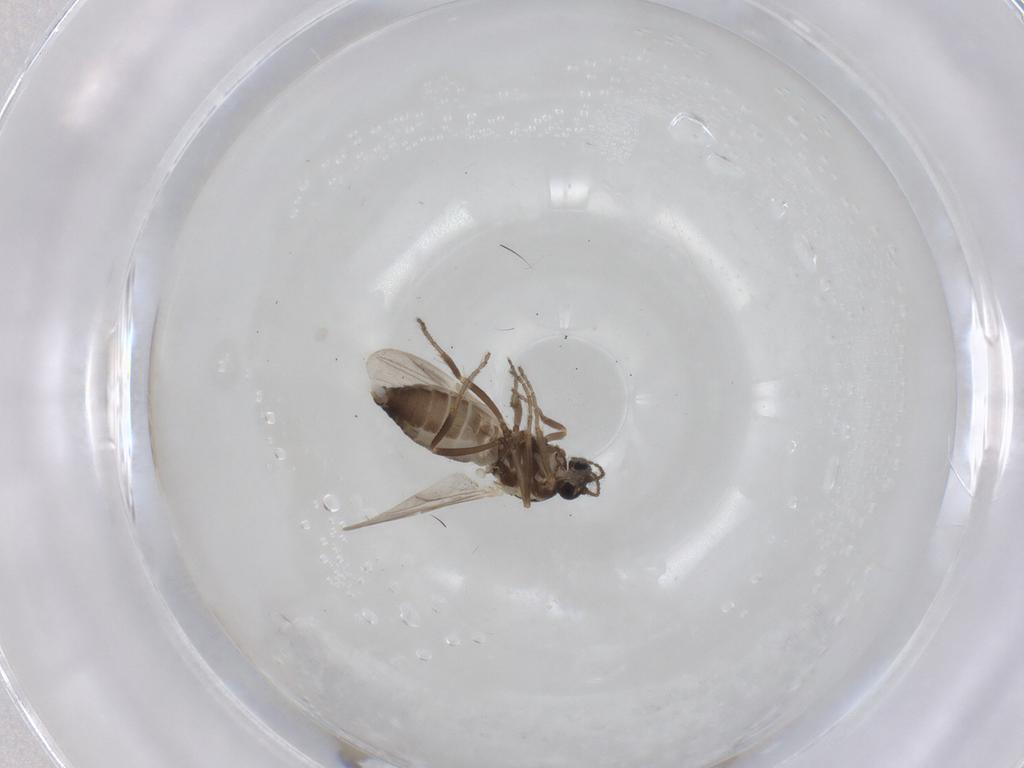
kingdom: Animalia
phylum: Arthropoda
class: Insecta
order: Diptera
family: Ceratopogonidae
